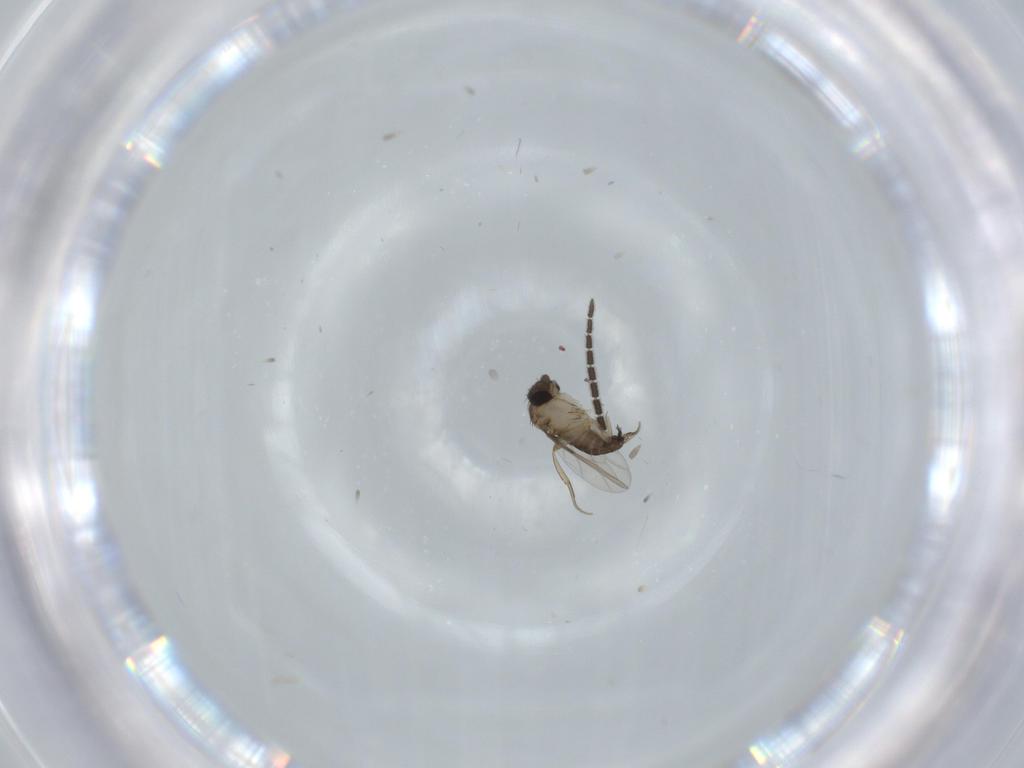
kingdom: Animalia
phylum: Arthropoda
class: Insecta
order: Diptera
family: Phoridae
